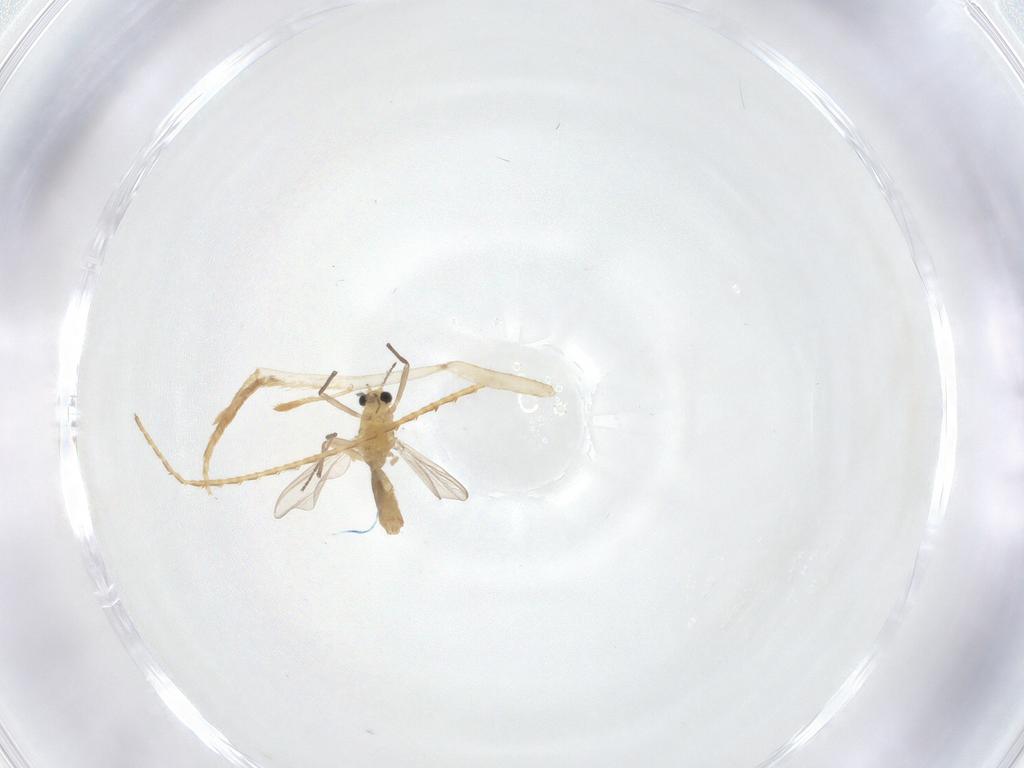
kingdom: Animalia
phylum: Arthropoda
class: Insecta
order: Diptera
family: Chironomidae
